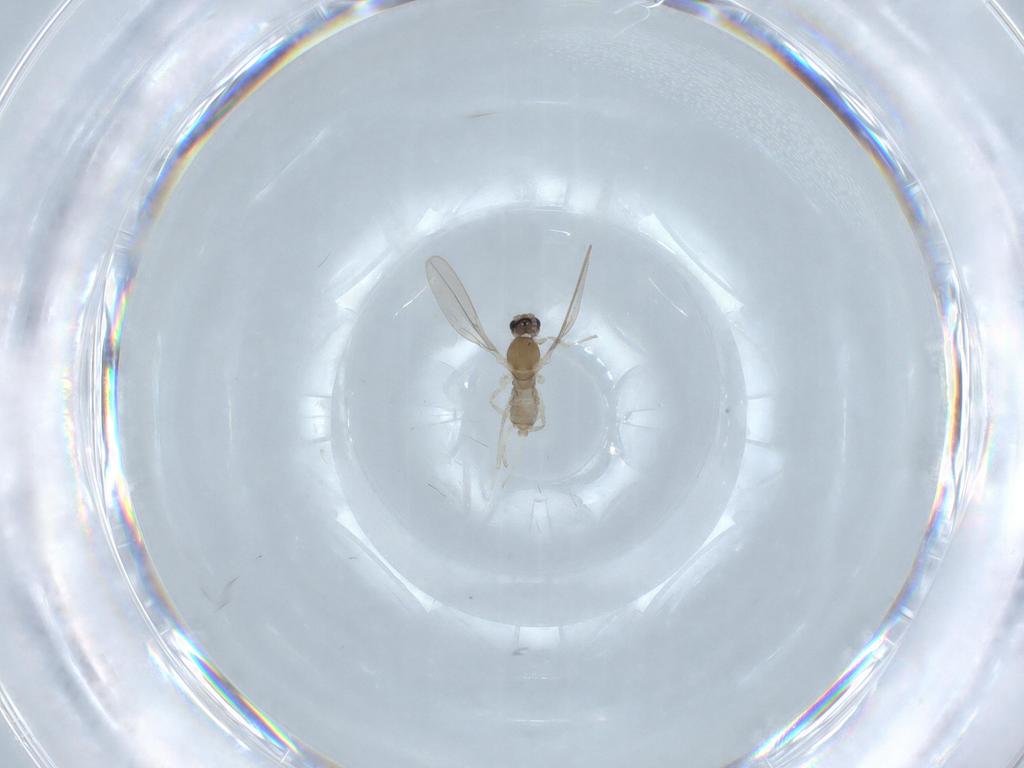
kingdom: Animalia
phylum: Arthropoda
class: Insecta
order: Diptera
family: Cecidomyiidae
